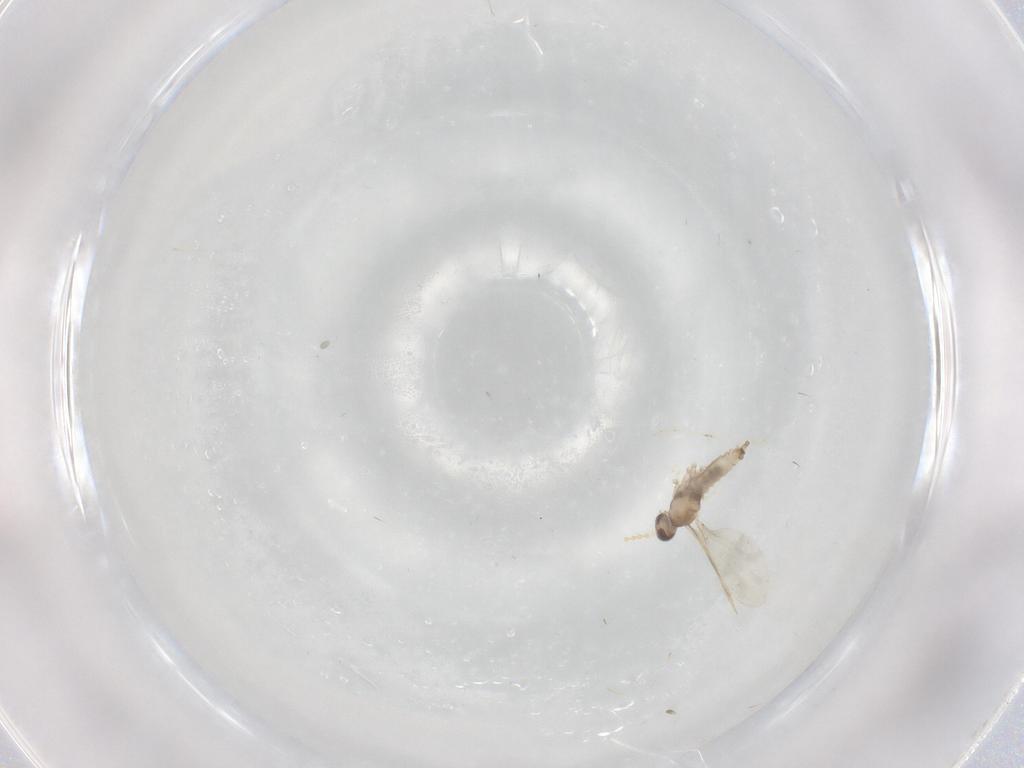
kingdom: Animalia
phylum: Arthropoda
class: Insecta
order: Diptera
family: Cecidomyiidae
